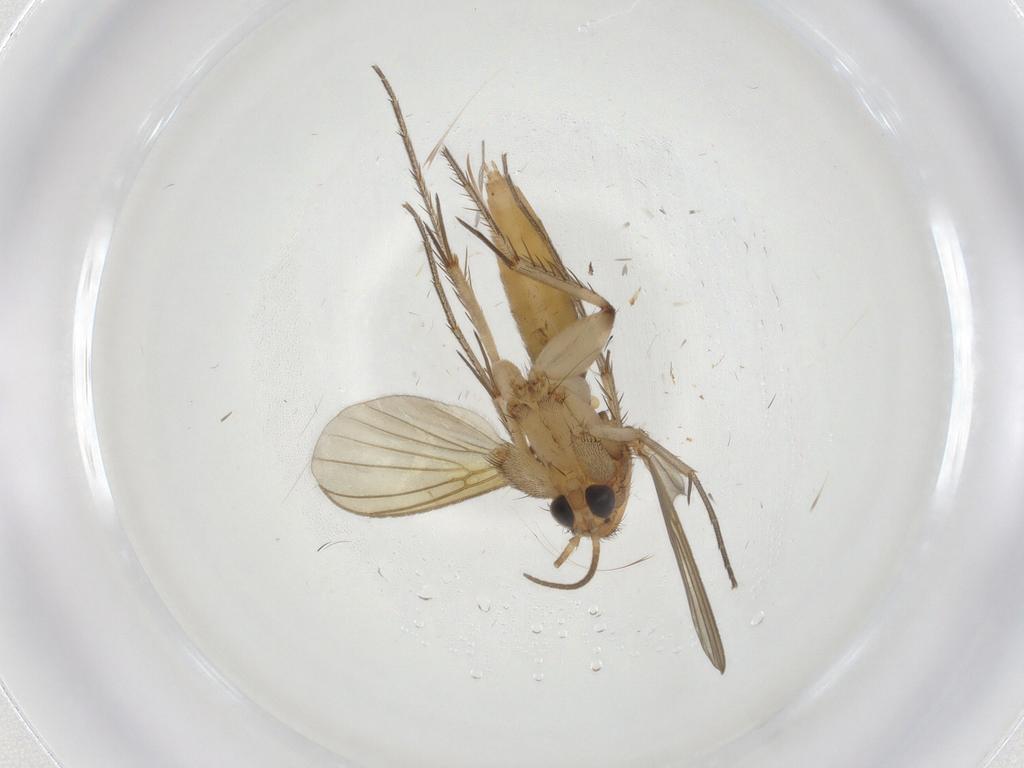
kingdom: Animalia
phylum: Arthropoda
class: Insecta
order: Diptera
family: Mycetophilidae
